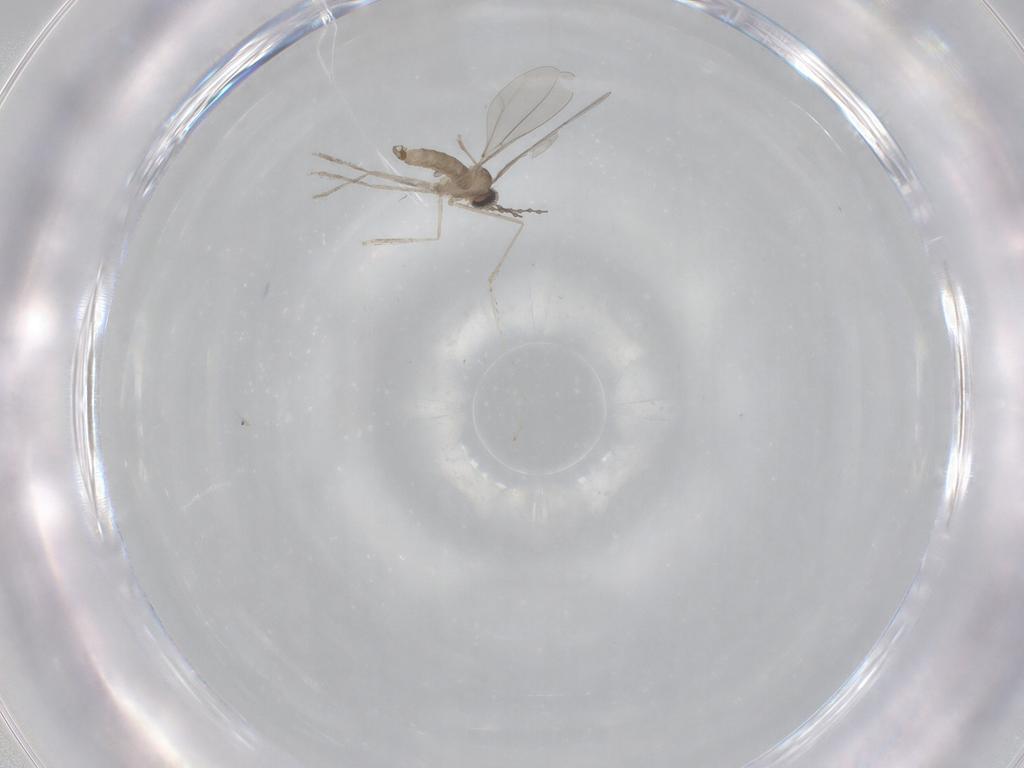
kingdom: Animalia
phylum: Arthropoda
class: Insecta
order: Diptera
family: Cecidomyiidae
